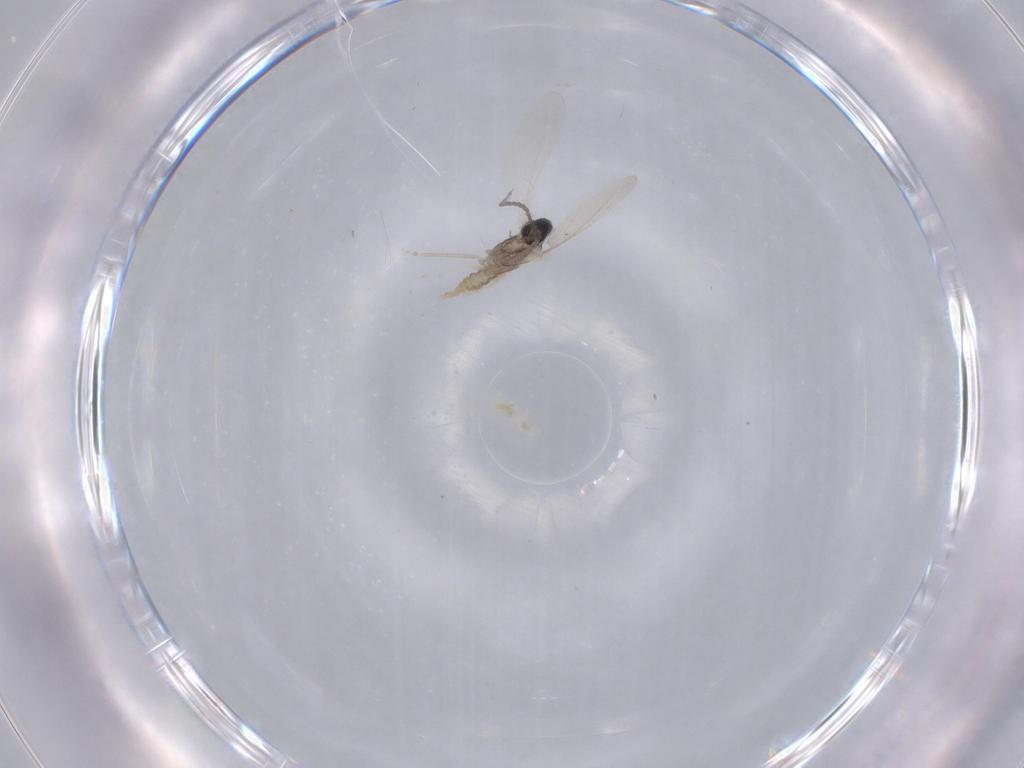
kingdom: Animalia
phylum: Arthropoda
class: Insecta
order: Diptera
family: Cecidomyiidae
